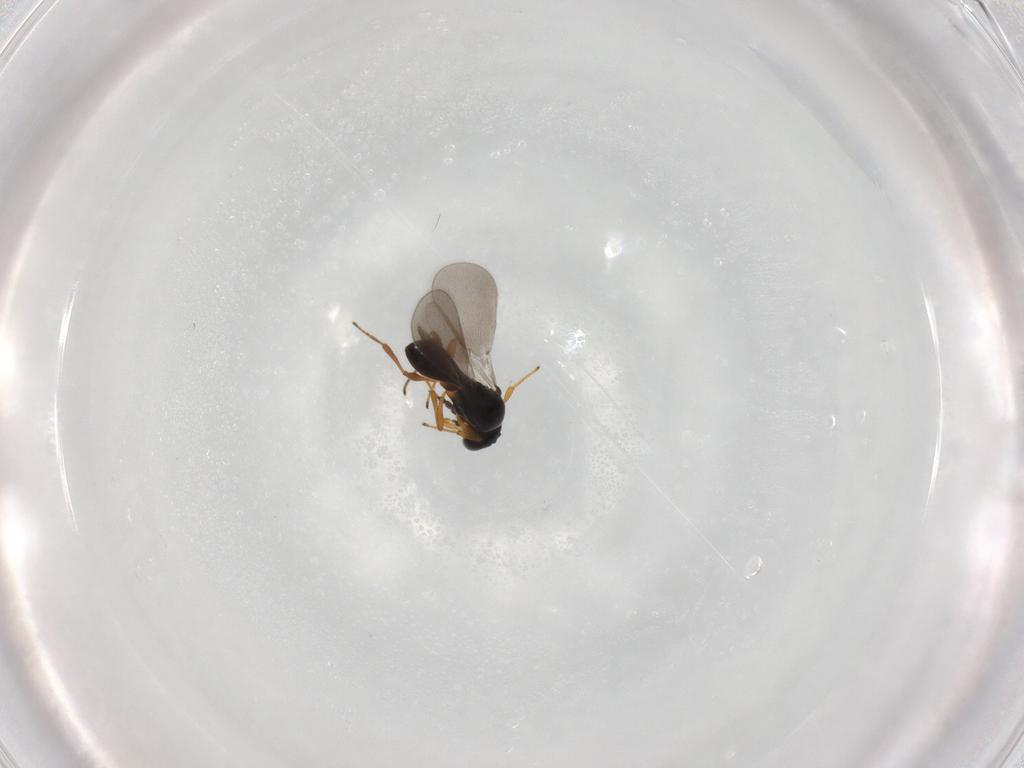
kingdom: Animalia
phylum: Arthropoda
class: Insecta
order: Hymenoptera
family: Platygastridae
